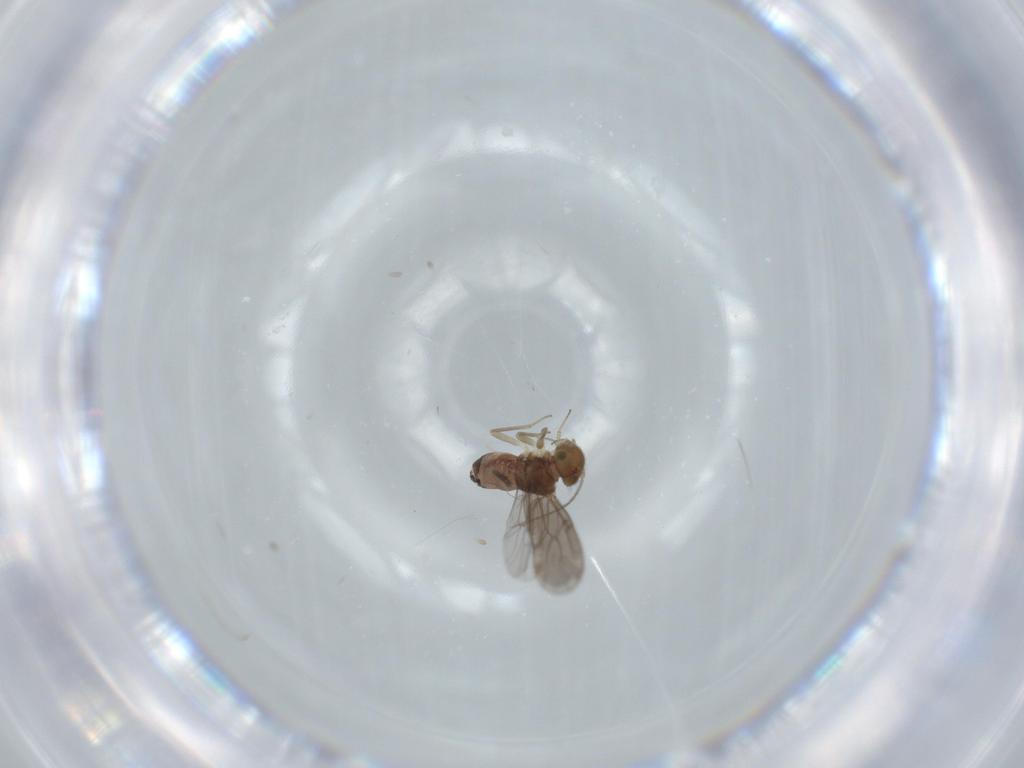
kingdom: Animalia
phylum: Arthropoda
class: Insecta
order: Psocodea
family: Ectopsocidae
